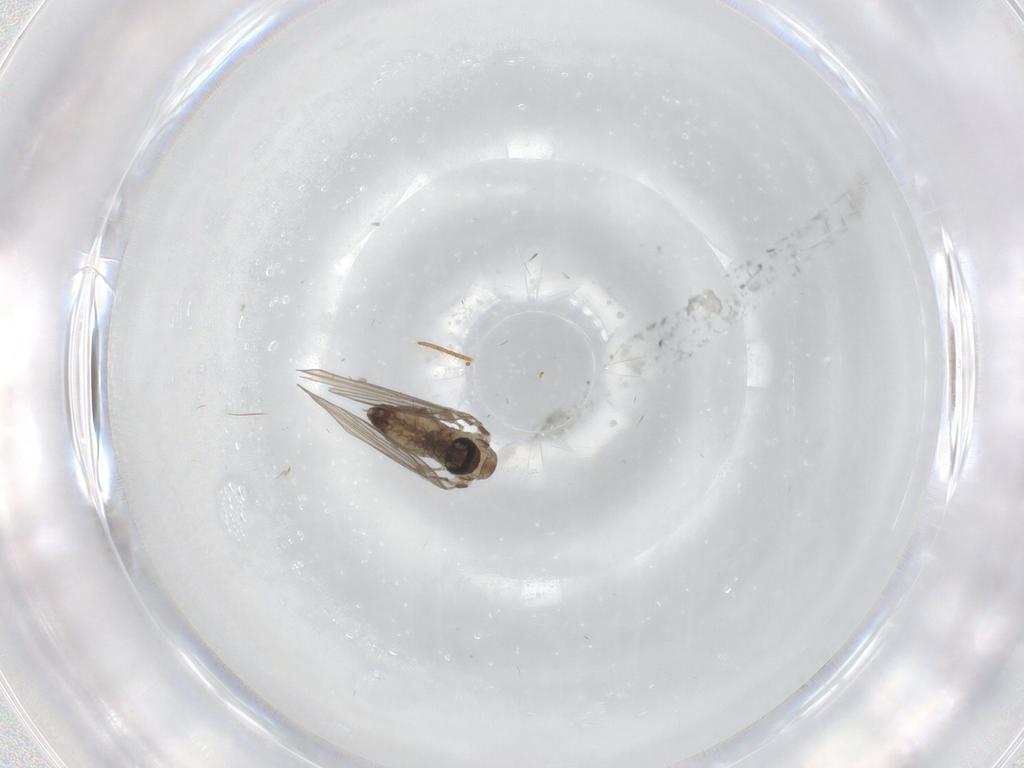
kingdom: Animalia
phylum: Arthropoda
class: Insecta
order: Diptera
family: Psychodidae
